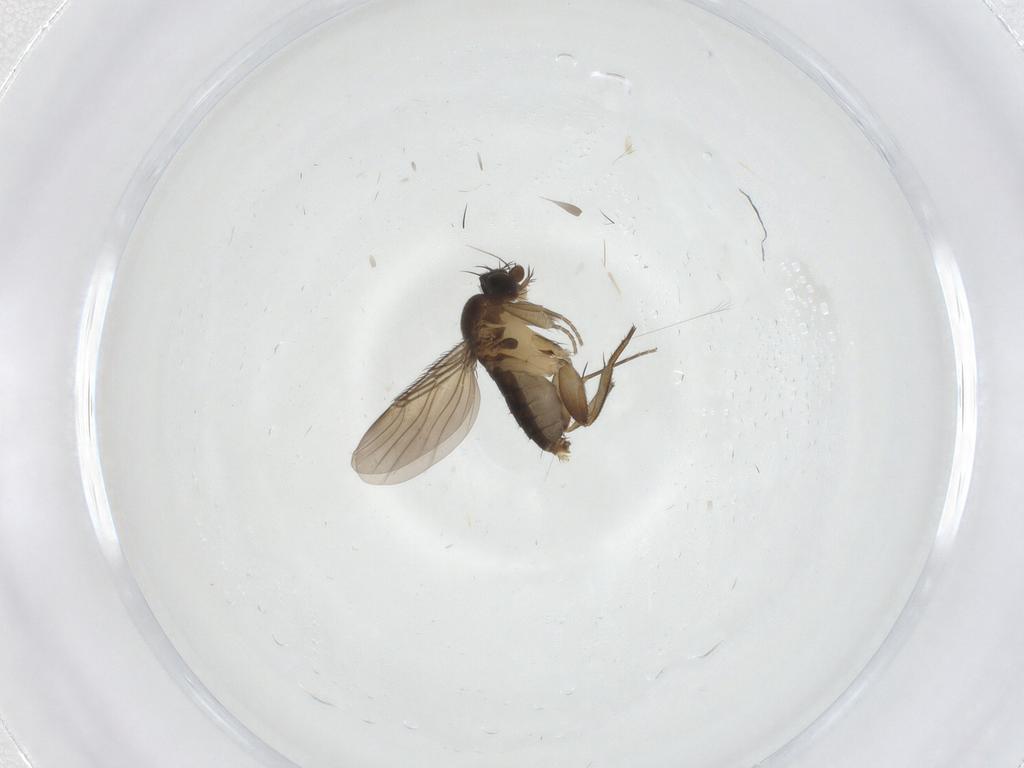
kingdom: Animalia
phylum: Arthropoda
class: Insecta
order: Diptera
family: Phoridae
